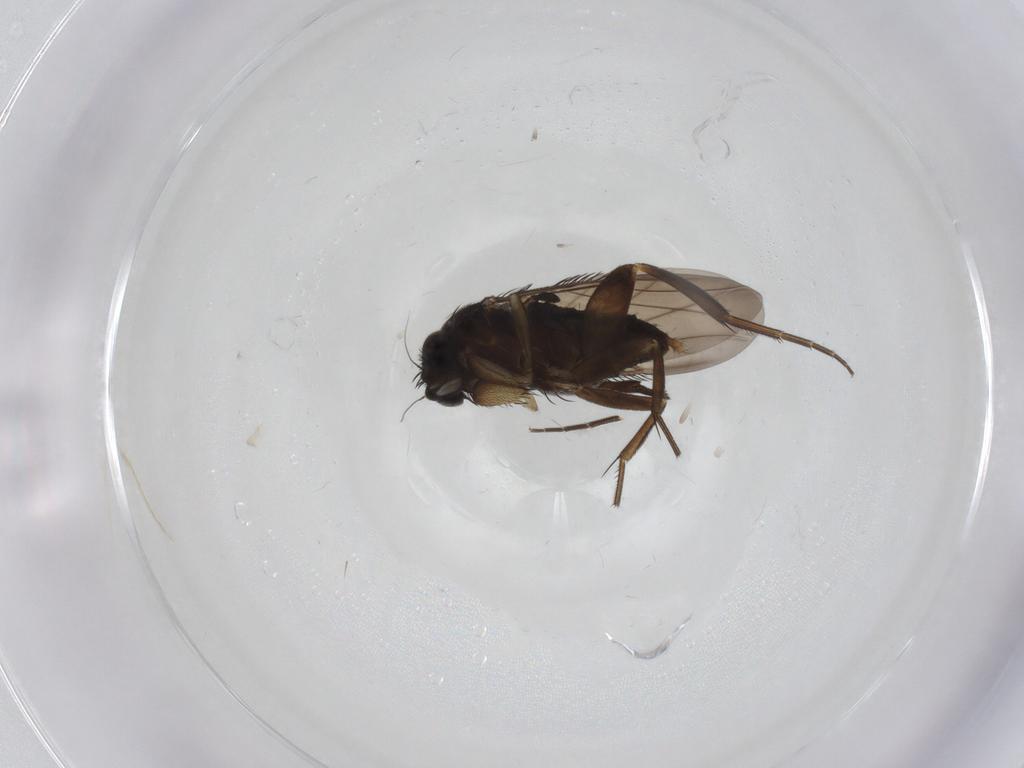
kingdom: Animalia
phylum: Arthropoda
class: Insecta
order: Diptera
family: Phoridae
